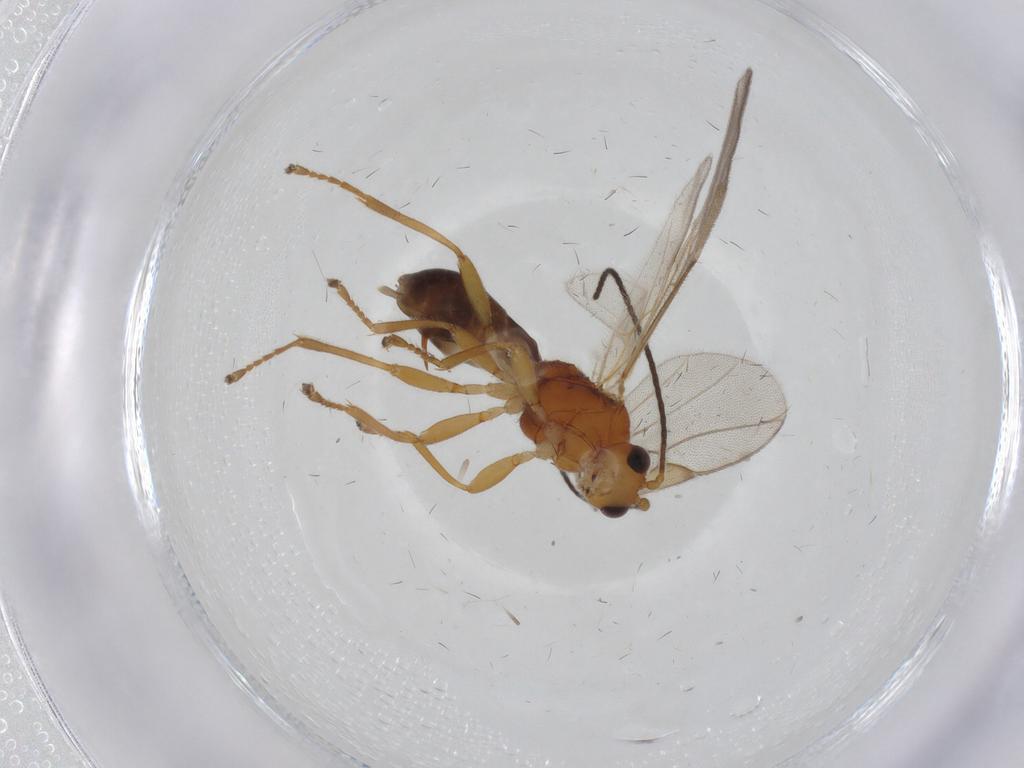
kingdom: Animalia
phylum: Arthropoda
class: Insecta
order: Hymenoptera
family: Braconidae
